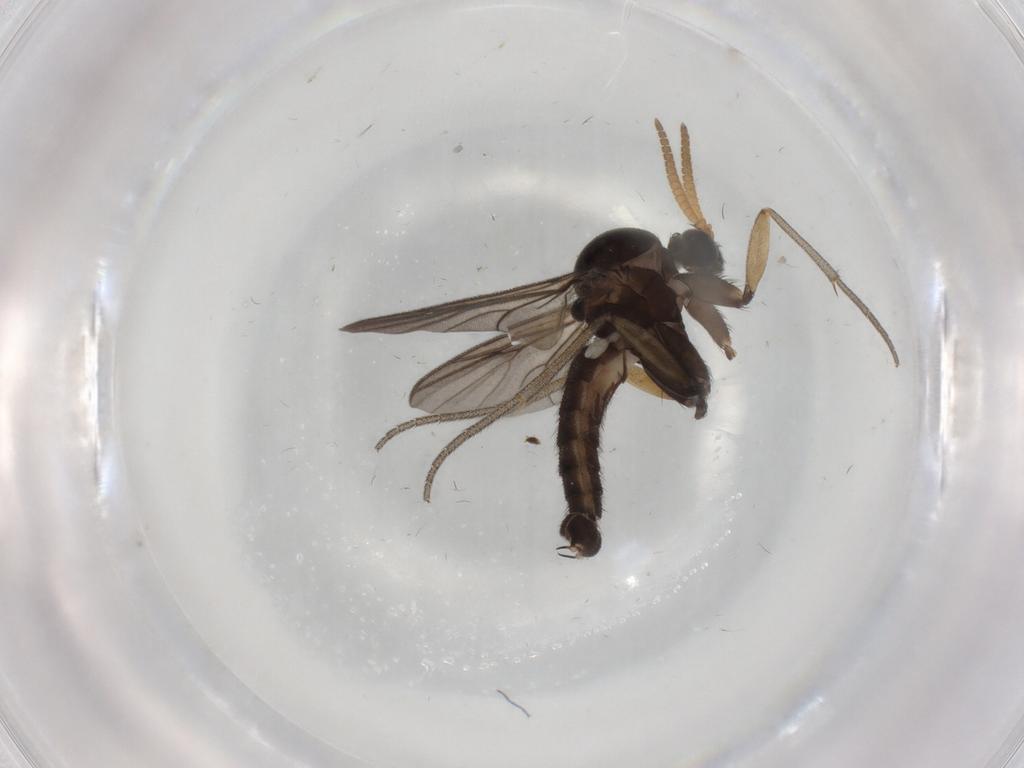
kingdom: Animalia
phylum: Arthropoda
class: Insecta
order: Diptera
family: Anthomyiidae
